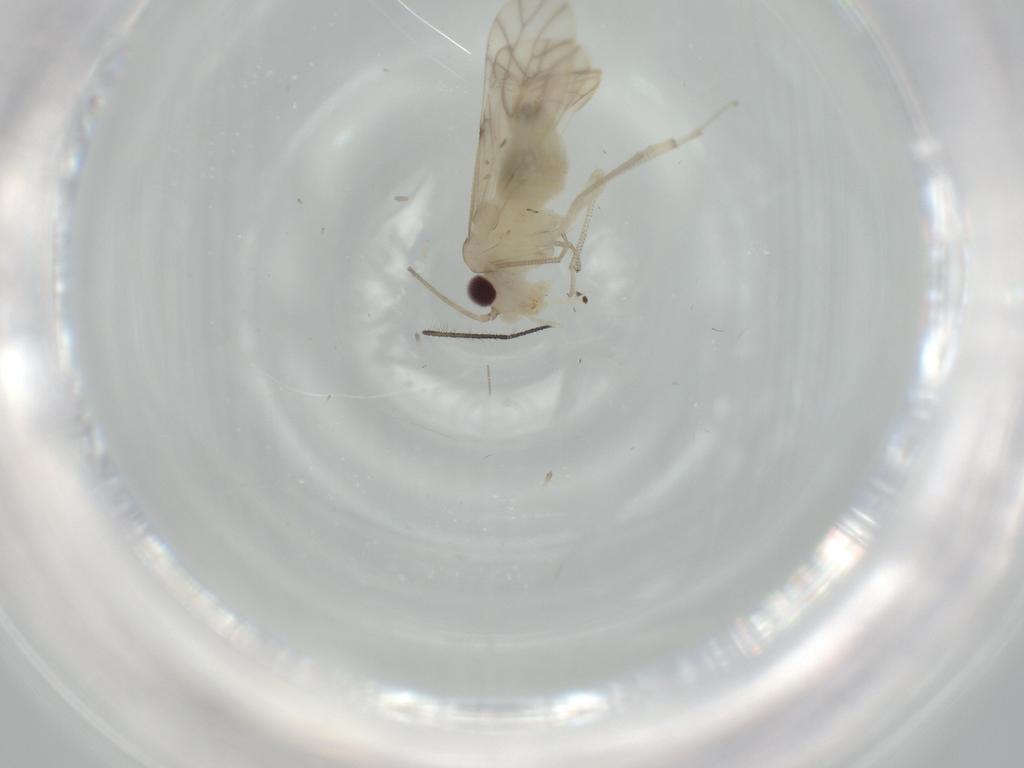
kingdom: Animalia
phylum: Arthropoda
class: Insecta
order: Psocodea
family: Caeciliusidae
